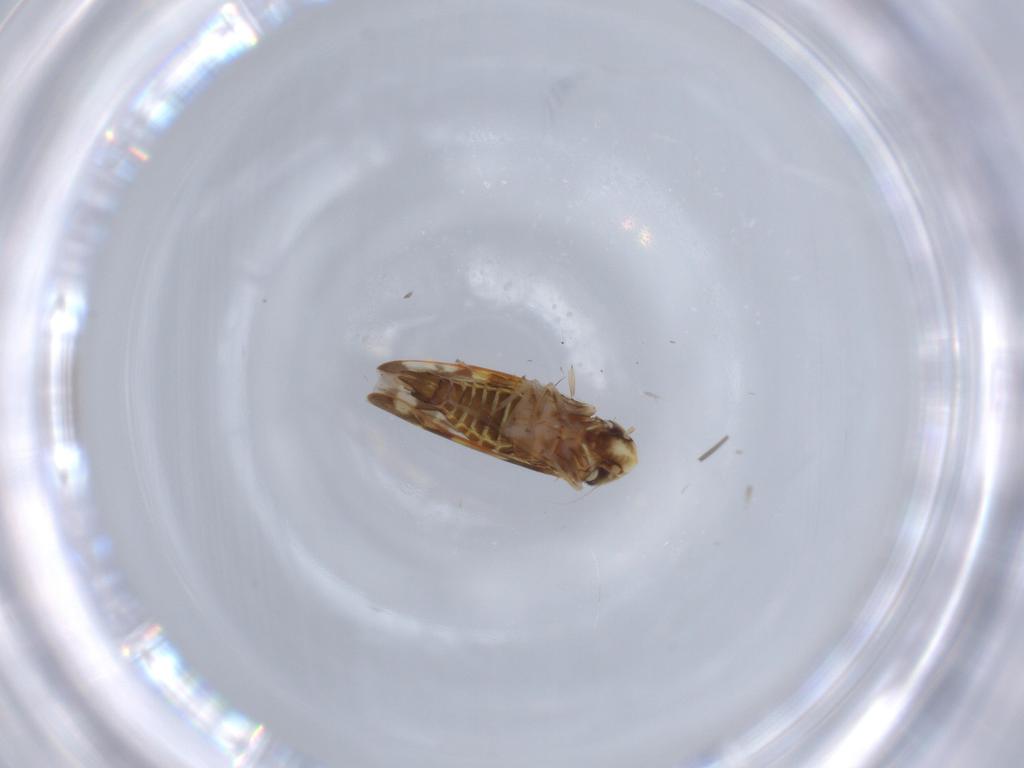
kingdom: Animalia
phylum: Arthropoda
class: Insecta
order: Hemiptera
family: Cicadellidae
